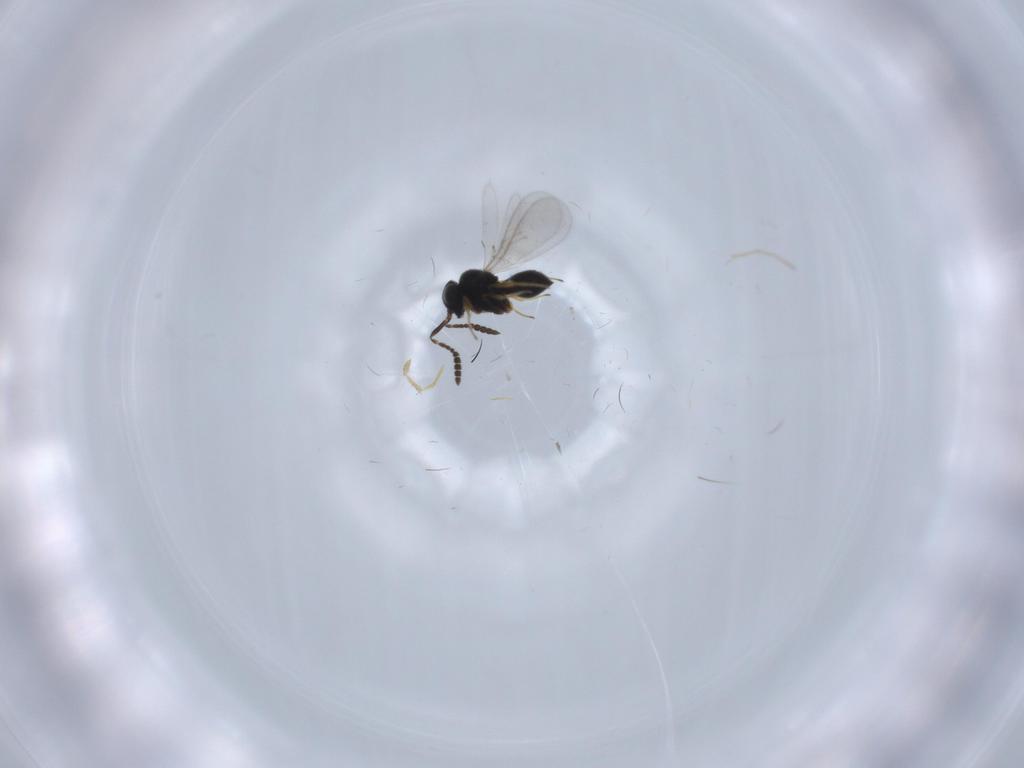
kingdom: Animalia
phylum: Arthropoda
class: Insecta
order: Hymenoptera
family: Scelionidae
